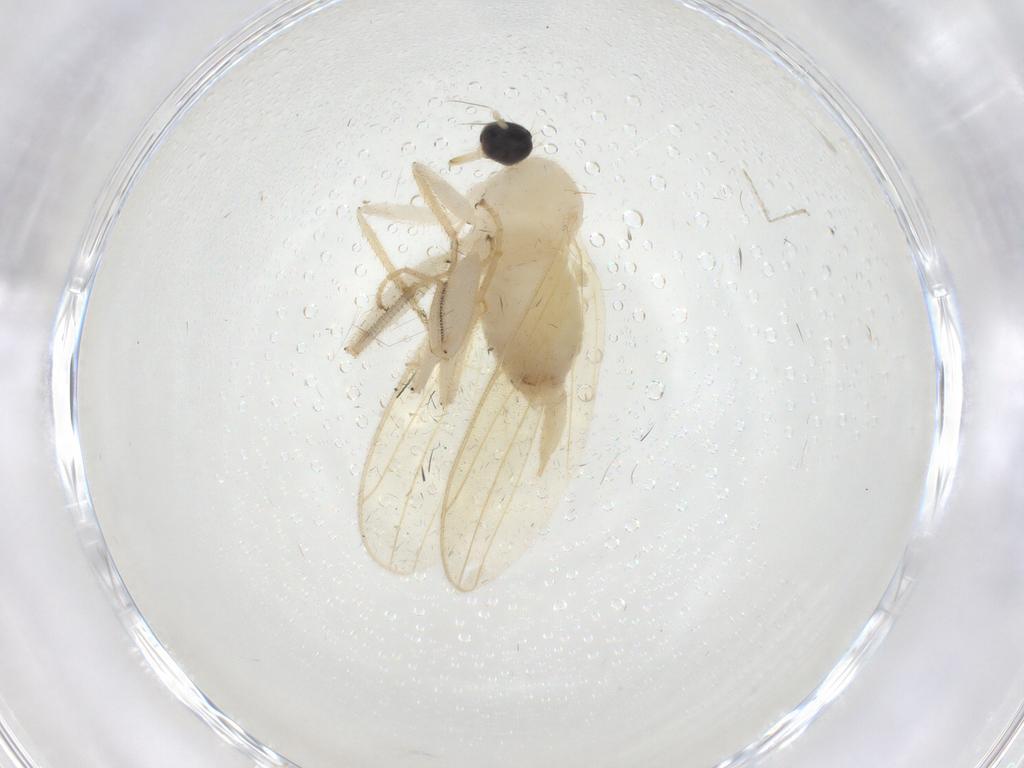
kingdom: Animalia
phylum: Arthropoda
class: Insecta
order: Diptera
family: Hybotidae
